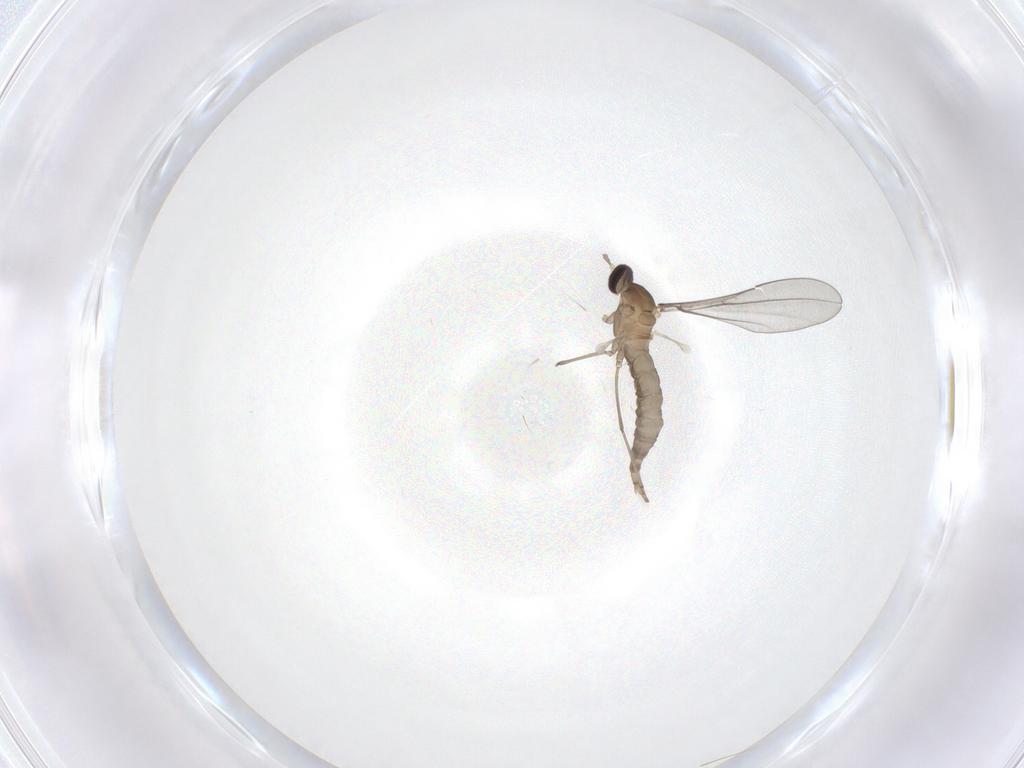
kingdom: Animalia
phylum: Arthropoda
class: Insecta
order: Diptera
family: Cecidomyiidae
